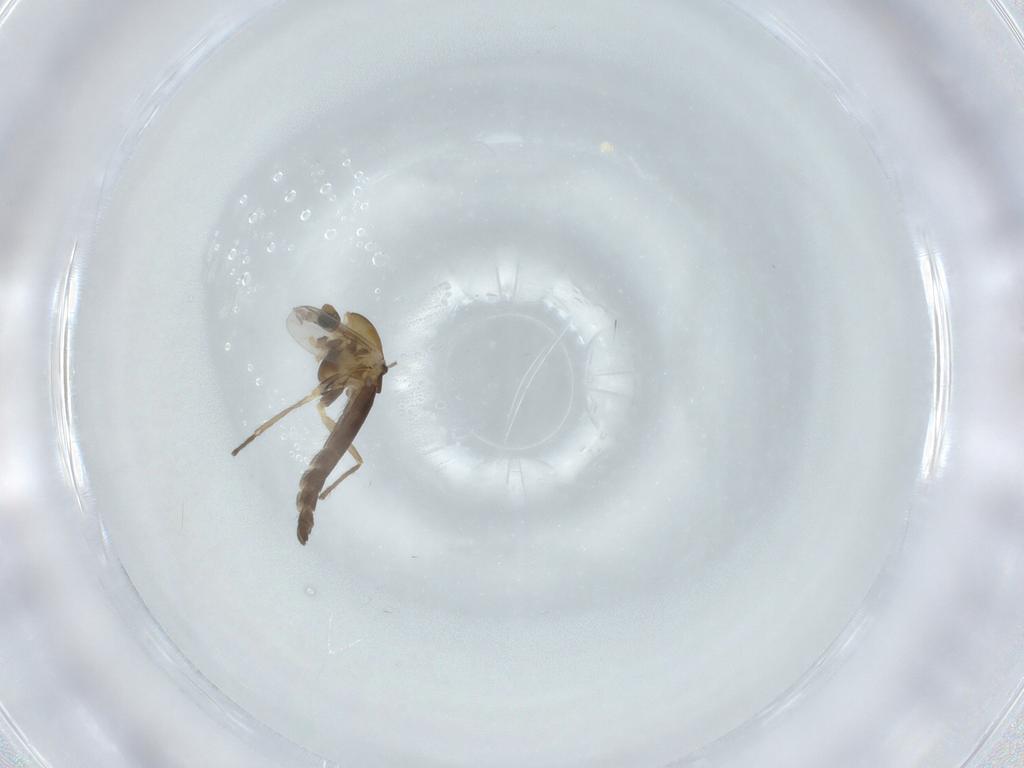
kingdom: Animalia
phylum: Arthropoda
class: Insecta
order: Diptera
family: Chironomidae
